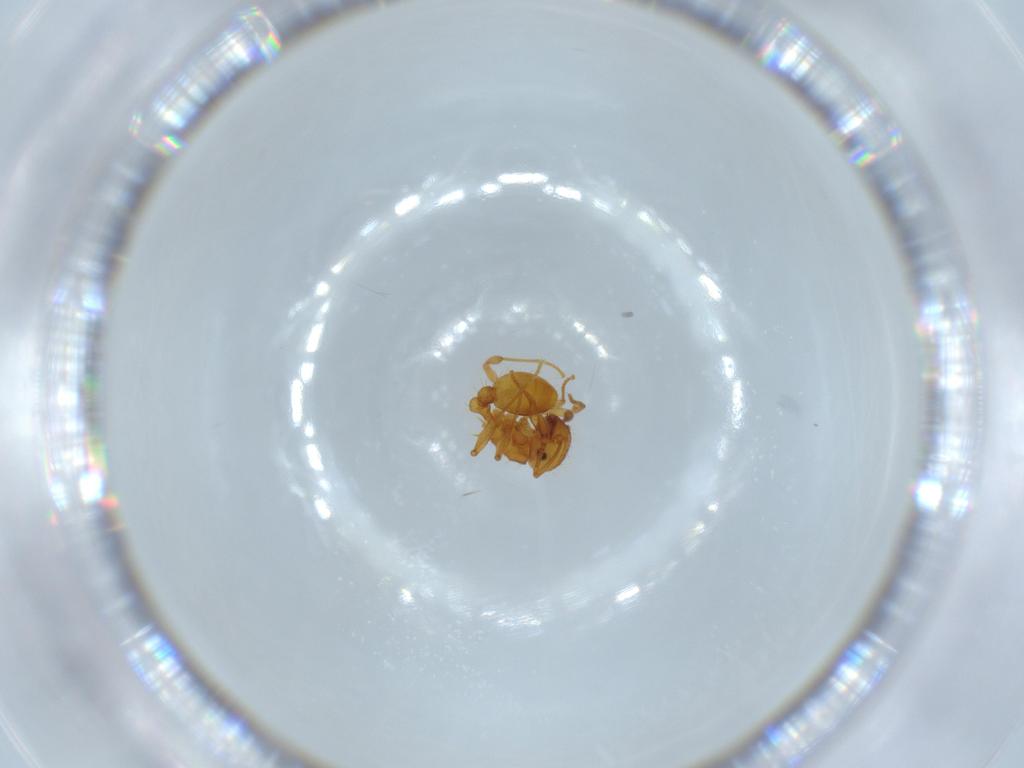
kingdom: Animalia
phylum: Arthropoda
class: Insecta
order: Hymenoptera
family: Formicidae
